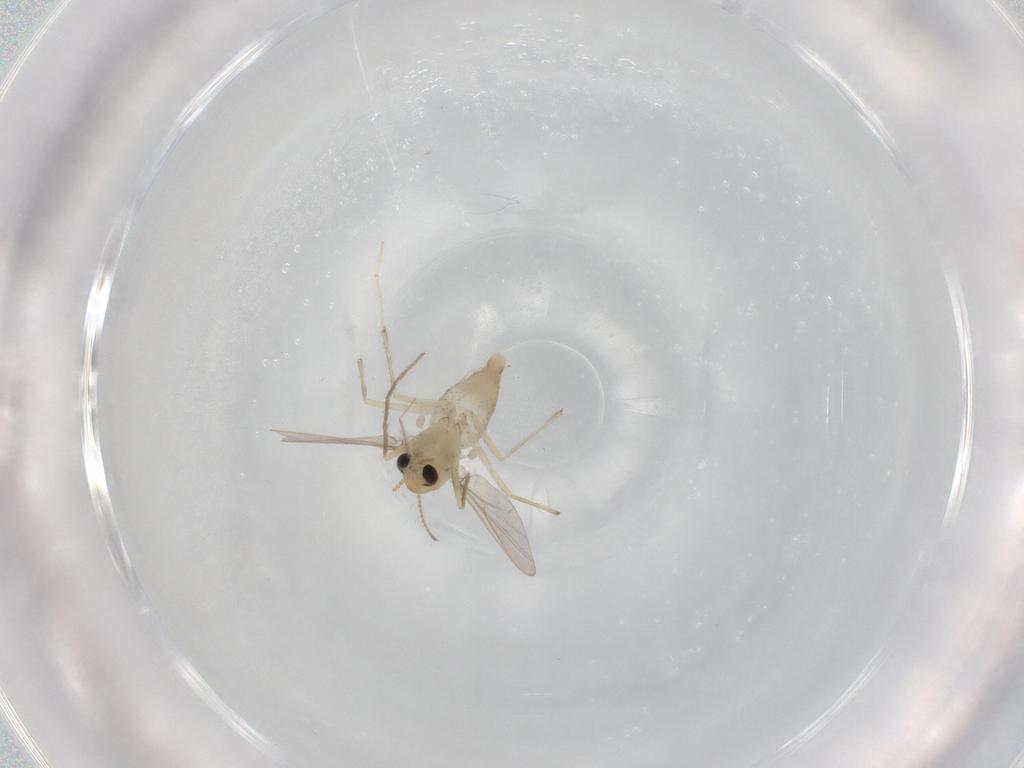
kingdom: Animalia
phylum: Arthropoda
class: Insecta
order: Diptera
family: Chironomidae
